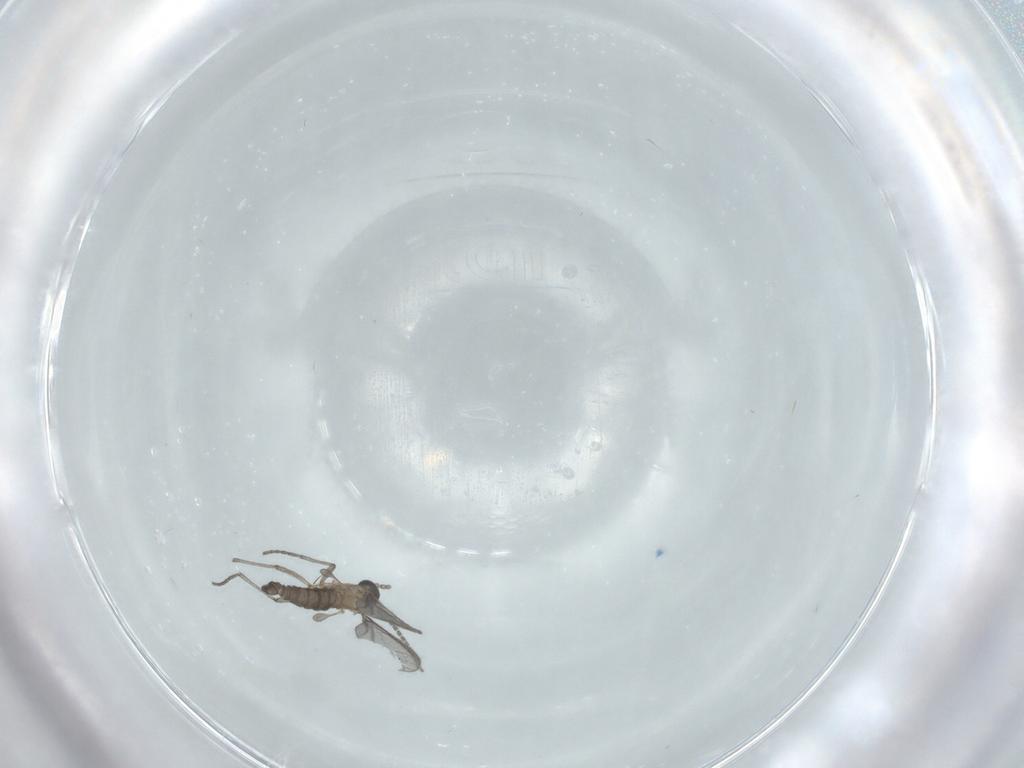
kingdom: Animalia
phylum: Arthropoda
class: Insecta
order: Diptera
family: Sciaridae
